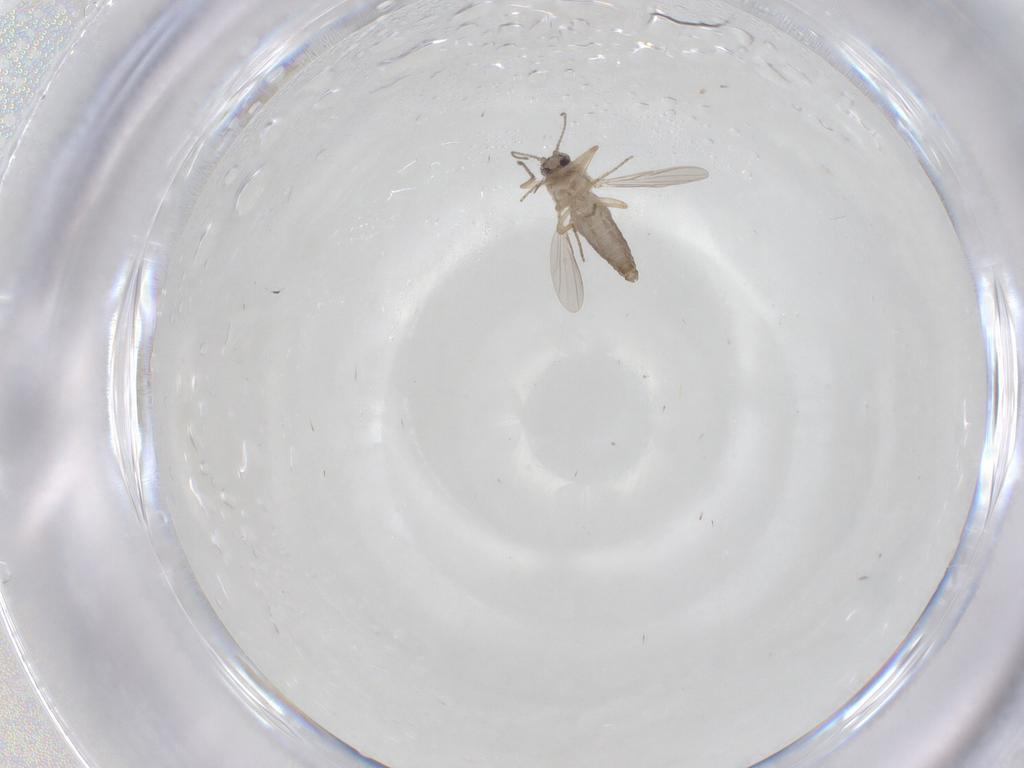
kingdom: Animalia
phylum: Arthropoda
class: Insecta
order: Diptera
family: Ceratopogonidae
